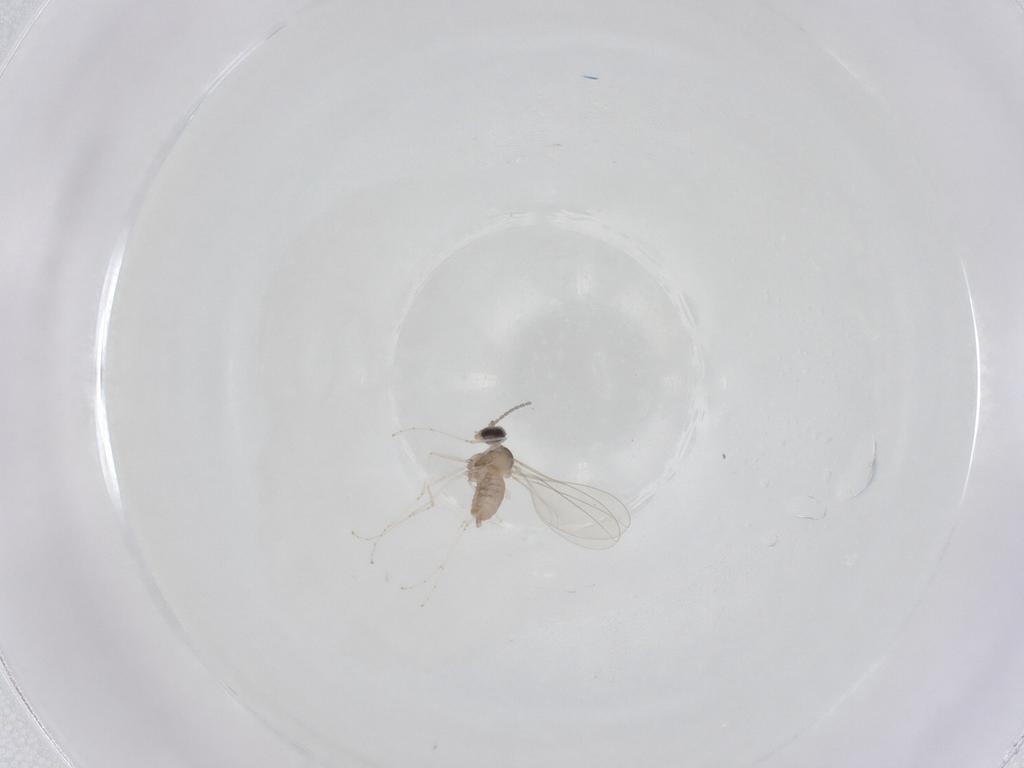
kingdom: Animalia
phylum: Arthropoda
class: Insecta
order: Diptera
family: Cecidomyiidae
